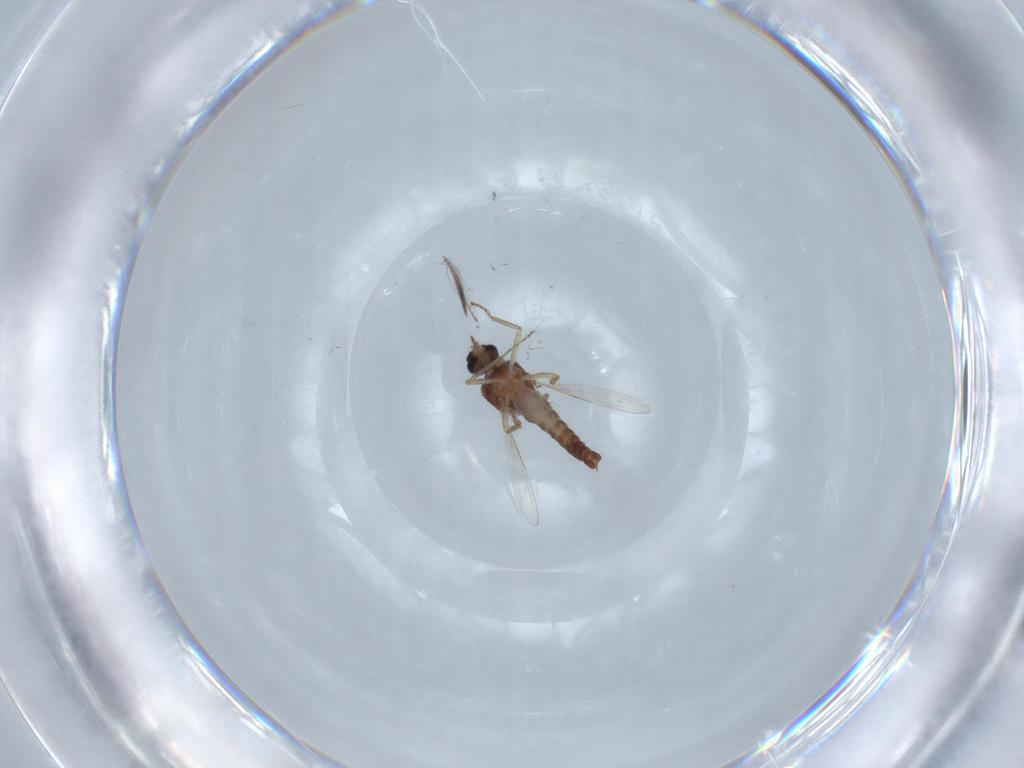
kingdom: Animalia
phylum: Arthropoda
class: Insecta
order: Diptera
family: Ceratopogonidae
